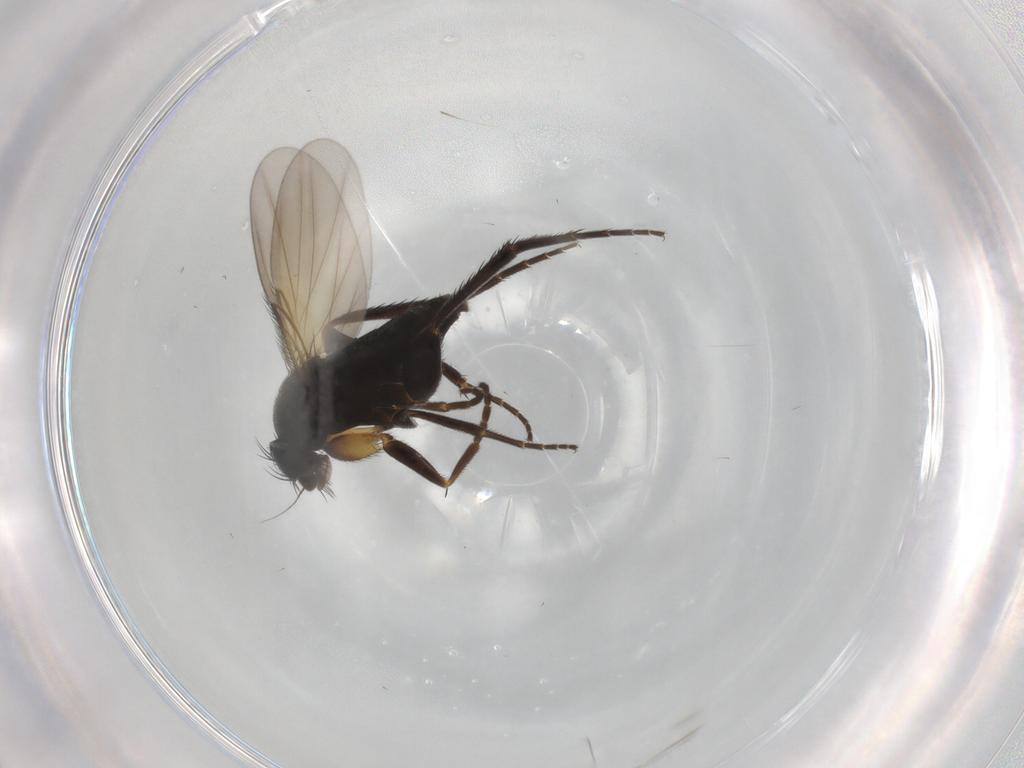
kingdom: Animalia
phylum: Arthropoda
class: Insecta
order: Diptera
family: Phoridae
